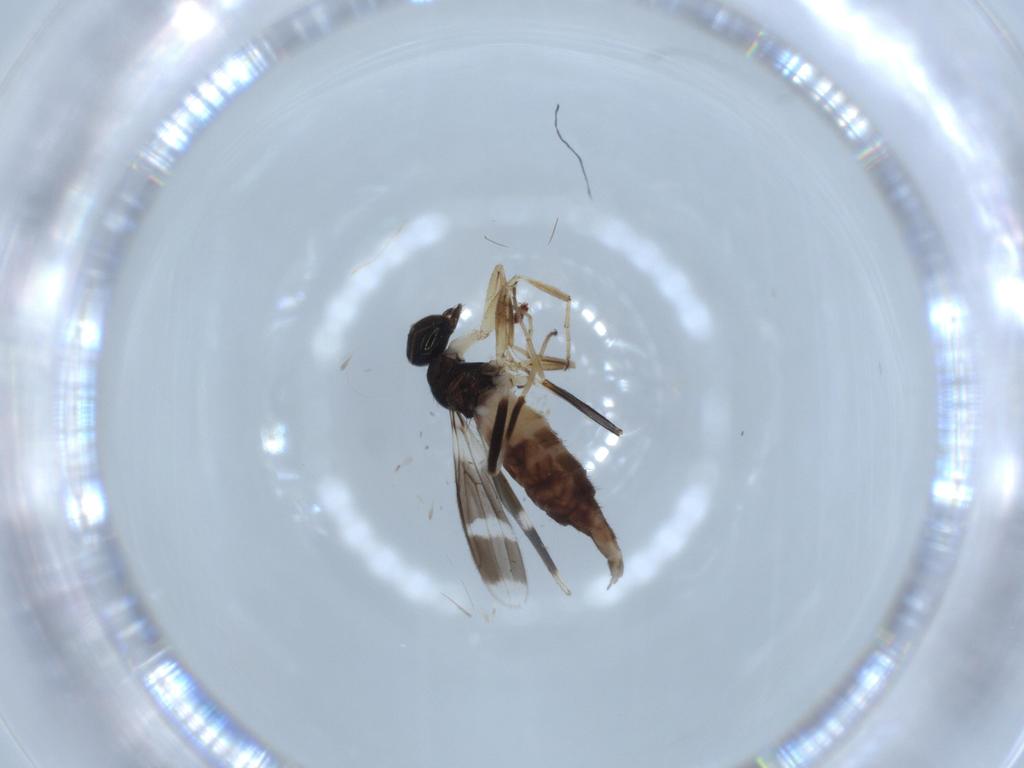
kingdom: Animalia
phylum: Arthropoda
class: Insecta
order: Diptera
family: Hybotidae
